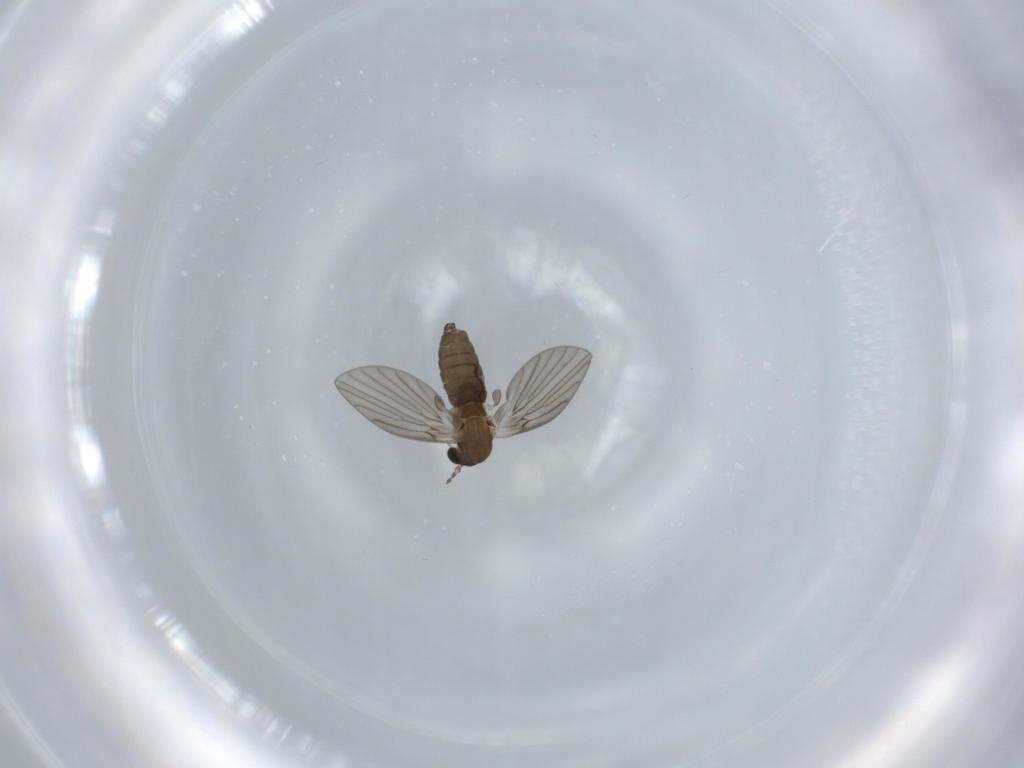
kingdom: Animalia
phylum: Arthropoda
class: Insecta
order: Diptera
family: Psychodidae
